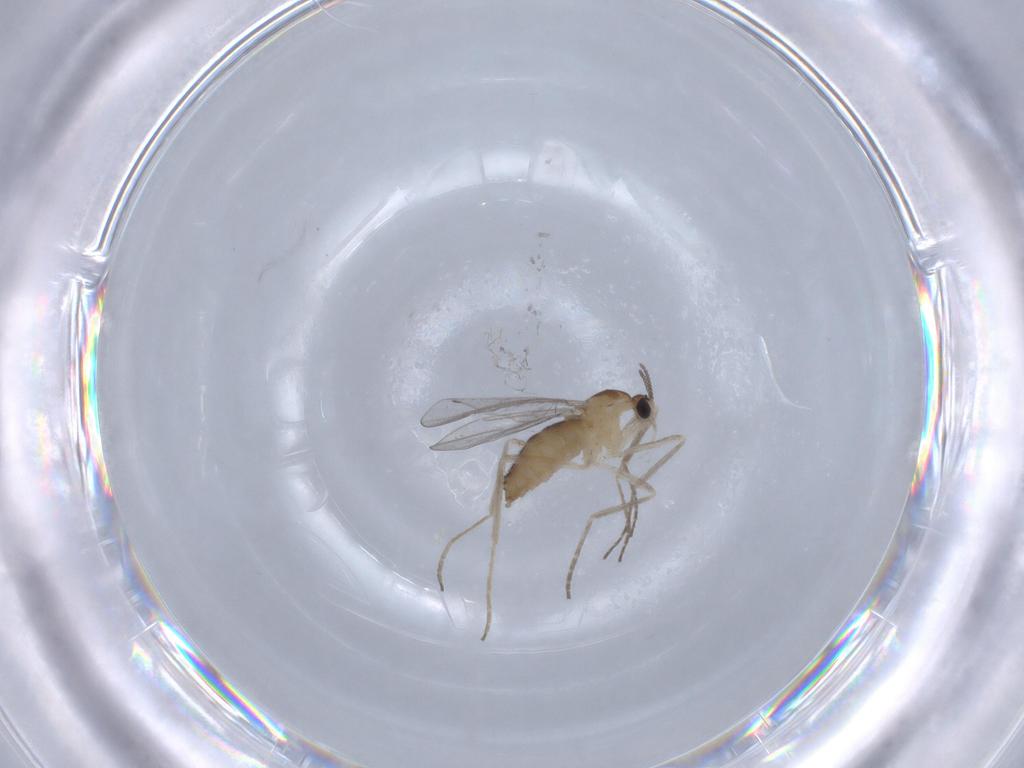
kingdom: Animalia
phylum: Arthropoda
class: Insecta
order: Diptera
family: Cecidomyiidae
